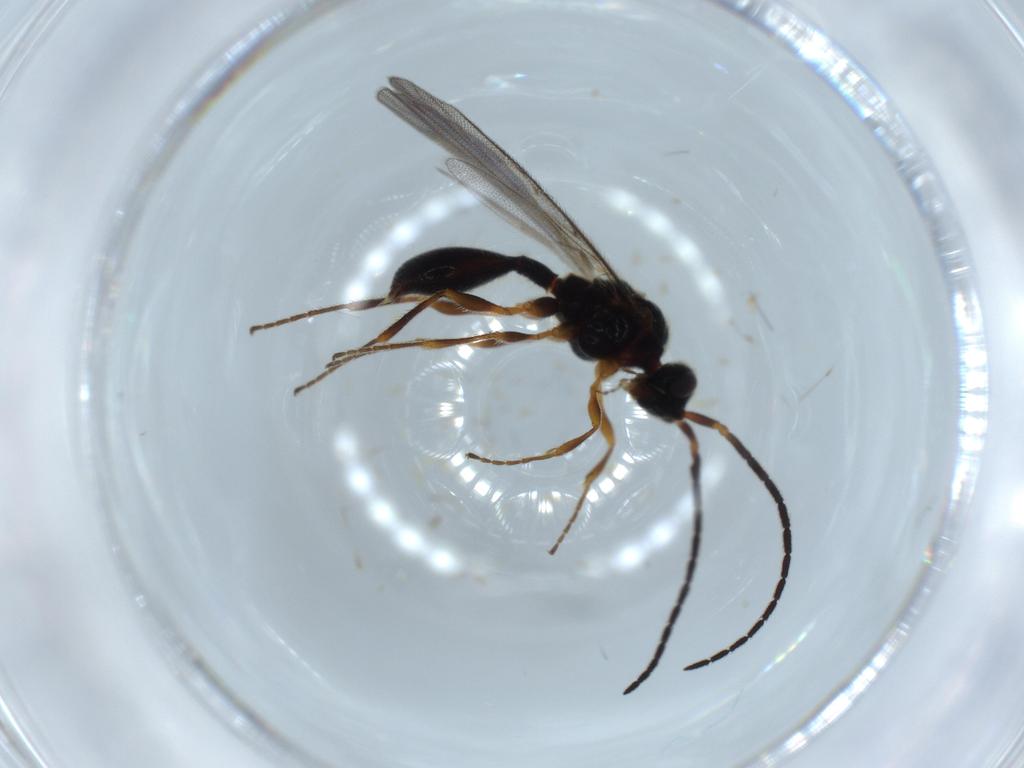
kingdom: Animalia
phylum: Arthropoda
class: Insecta
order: Hymenoptera
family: Diapriidae
